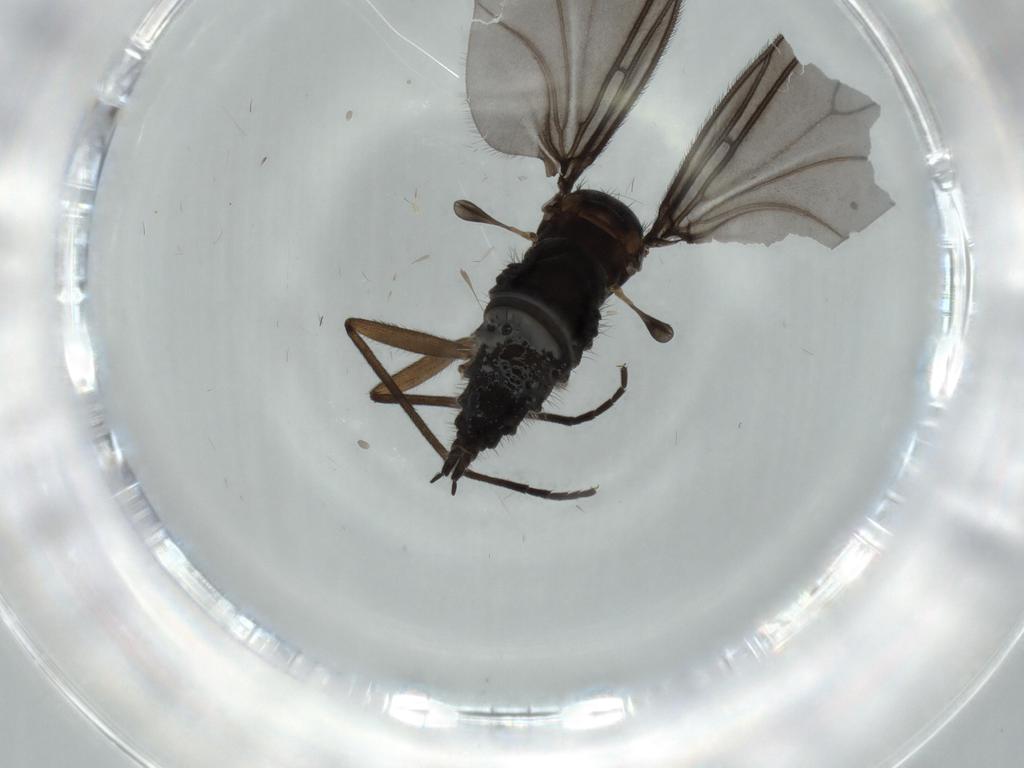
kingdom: Animalia
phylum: Arthropoda
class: Insecta
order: Diptera
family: Sciaridae
